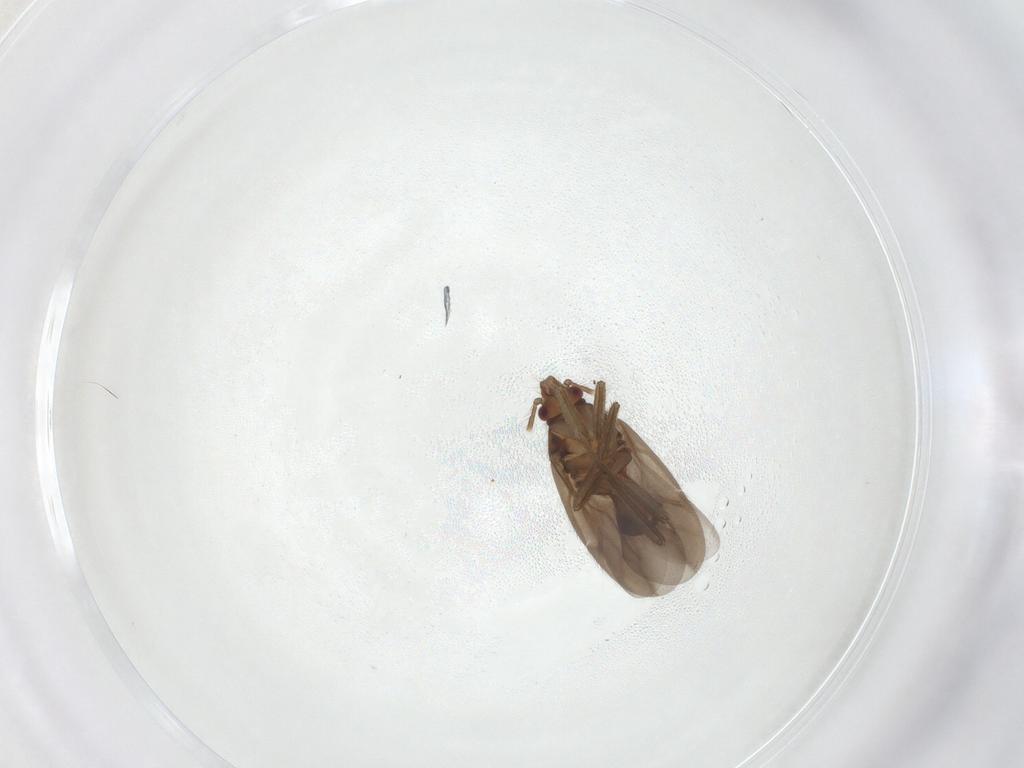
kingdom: Animalia
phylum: Arthropoda
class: Insecta
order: Hemiptera
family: Ceratocombidae
